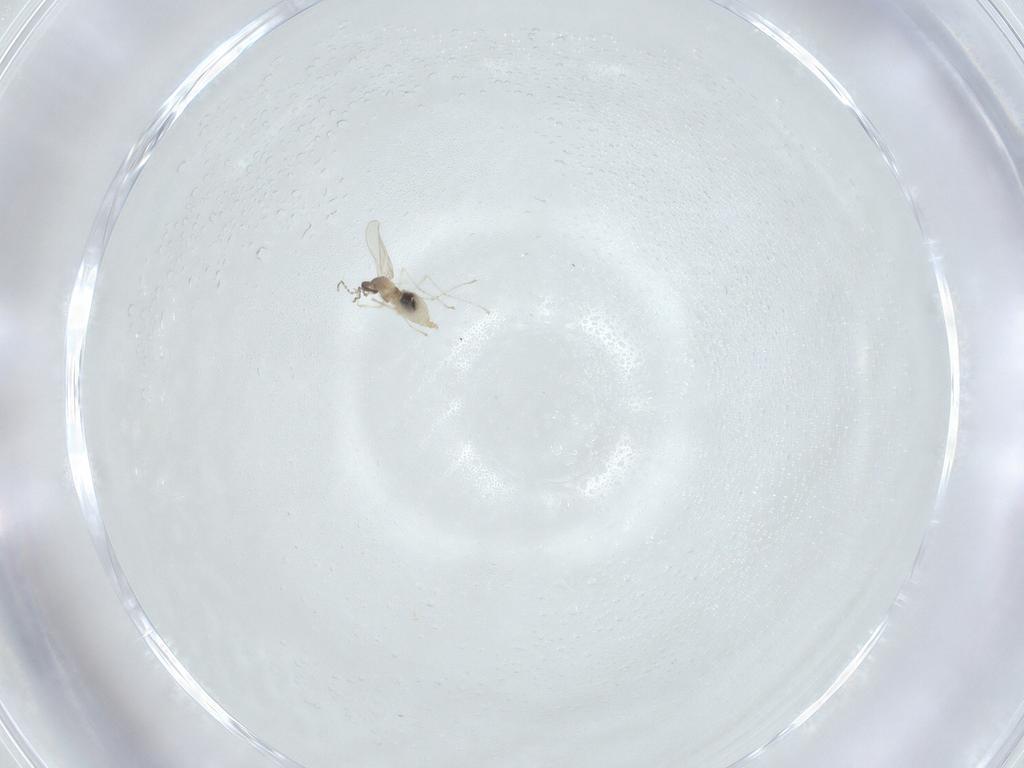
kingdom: Animalia
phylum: Arthropoda
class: Insecta
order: Diptera
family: Cecidomyiidae
